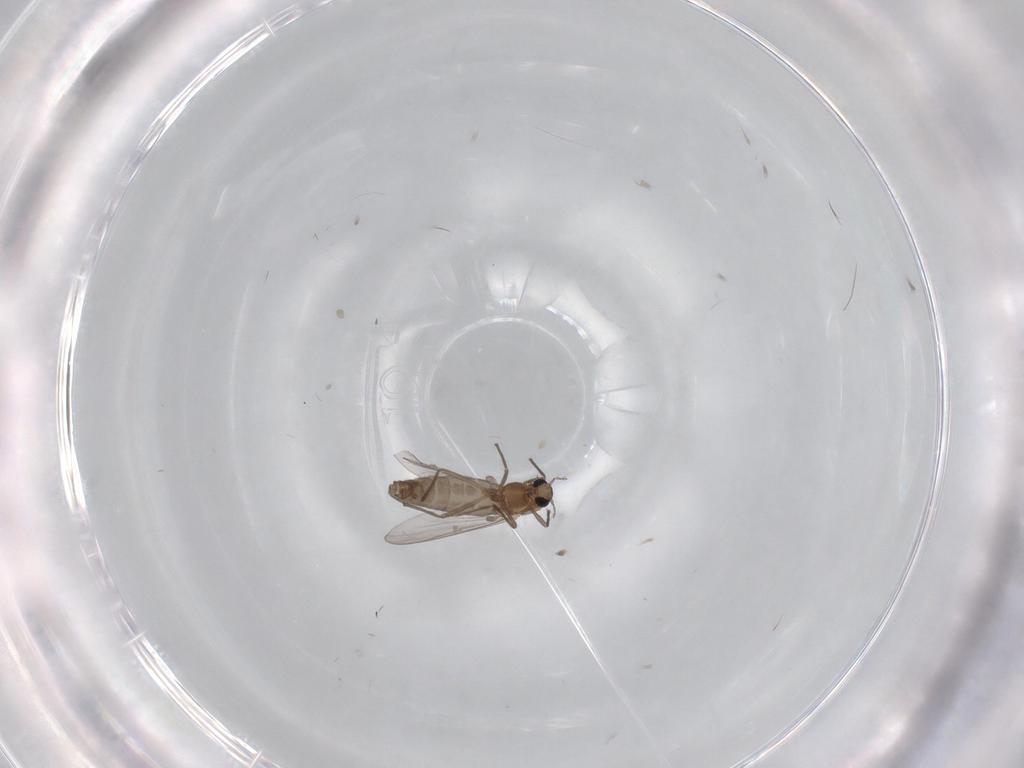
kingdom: Animalia
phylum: Arthropoda
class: Insecta
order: Diptera
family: Chironomidae
